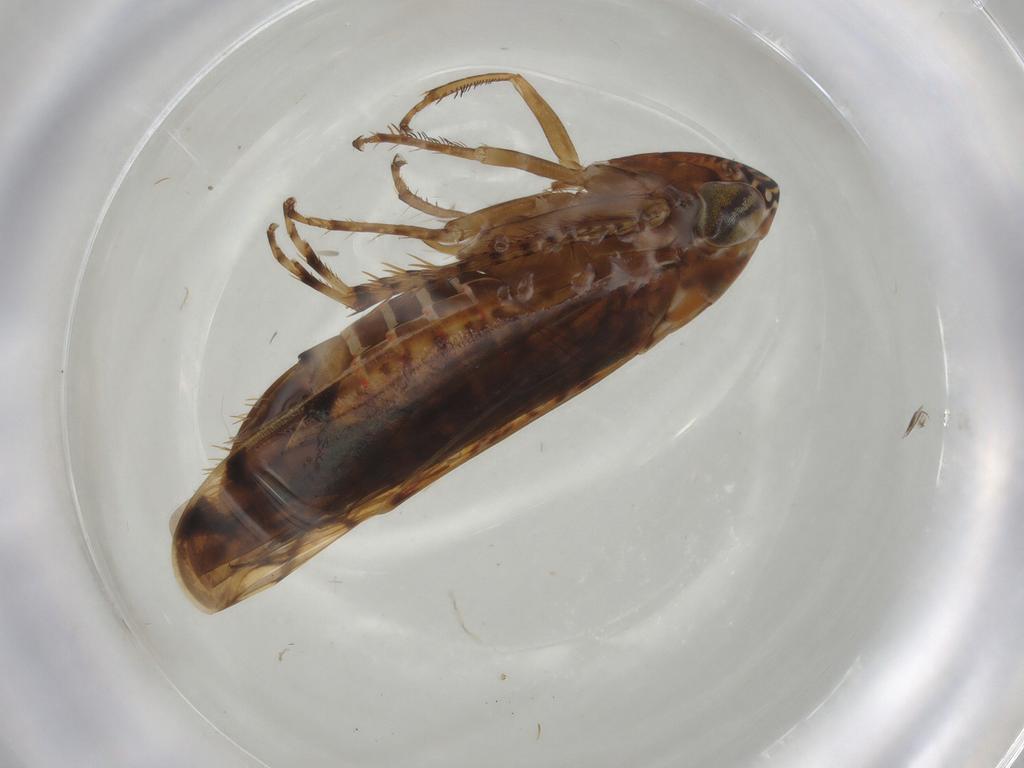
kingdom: Animalia
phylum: Arthropoda
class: Insecta
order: Hemiptera
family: Cicadellidae
